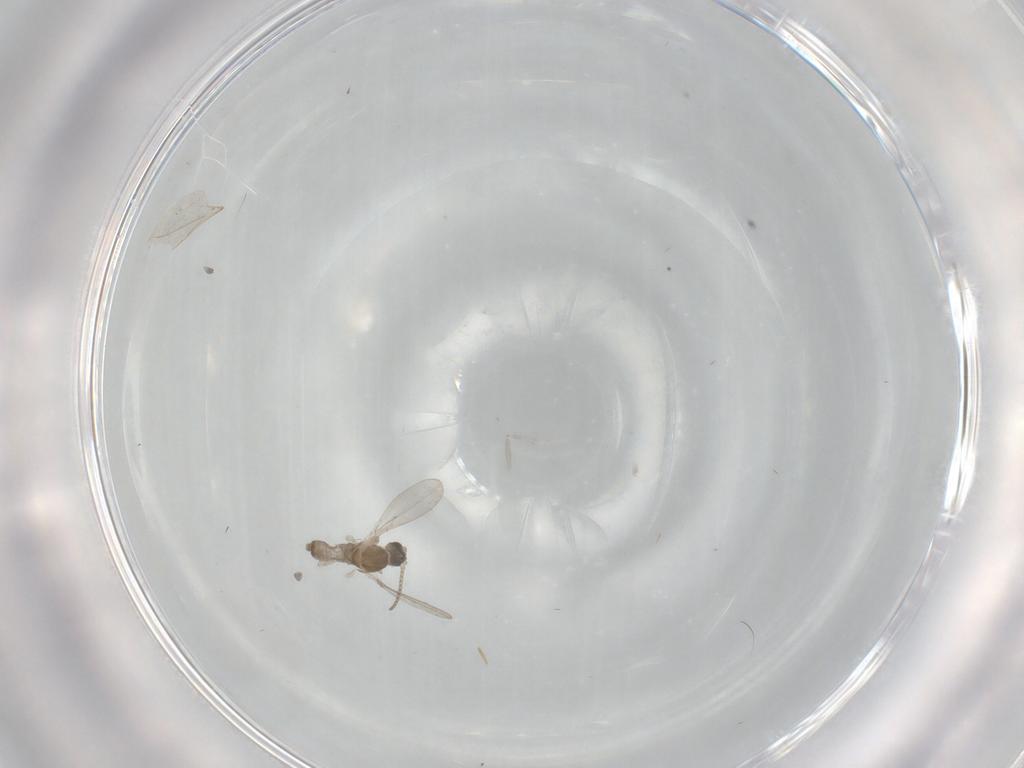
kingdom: Animalia
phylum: Arthropoda
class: Insecta
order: Diptera
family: Cecidomyiidae
